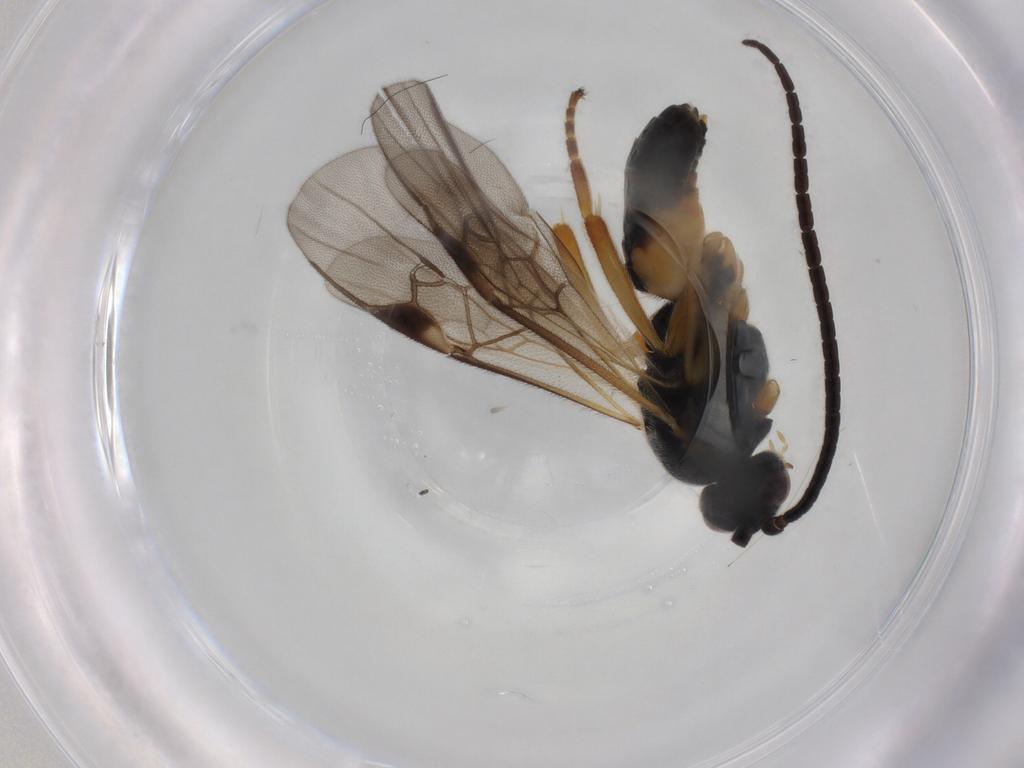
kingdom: Animalia
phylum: Arthropoda
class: Insecta
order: Hymenoptera
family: Braconidae
